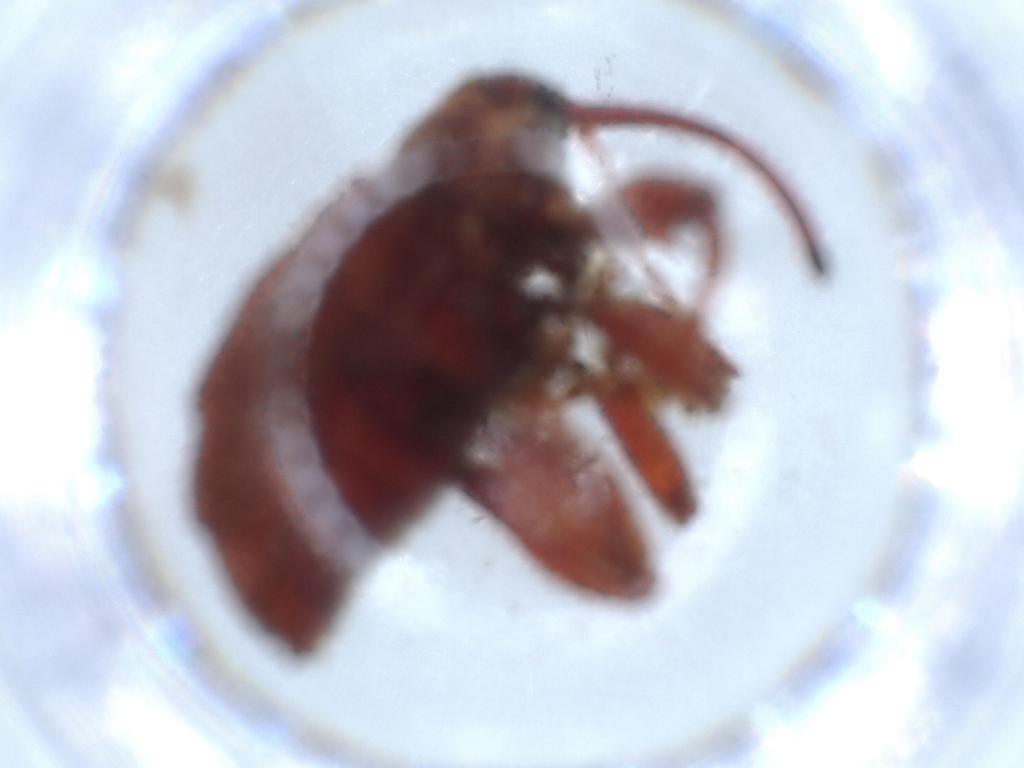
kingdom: Animalia
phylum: Arthropoda
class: Insecta
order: Coleoptera
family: Curculionidae
